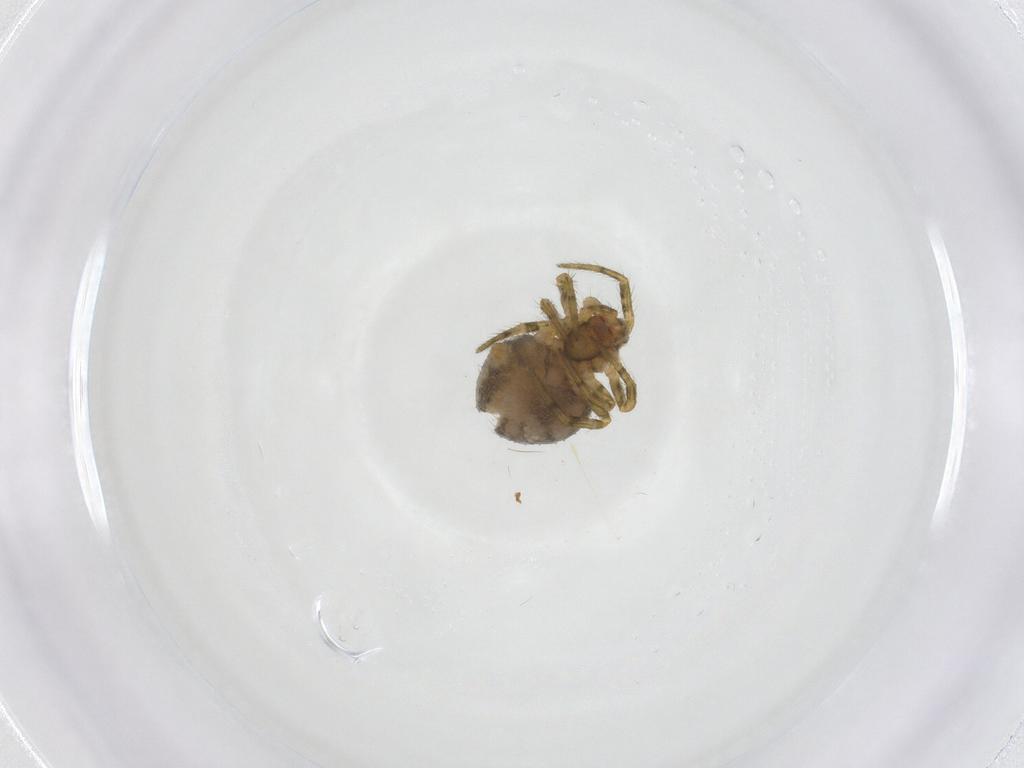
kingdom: Animalia
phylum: Arthropoda
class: Arachnida
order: Araneae
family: Theridiidae
